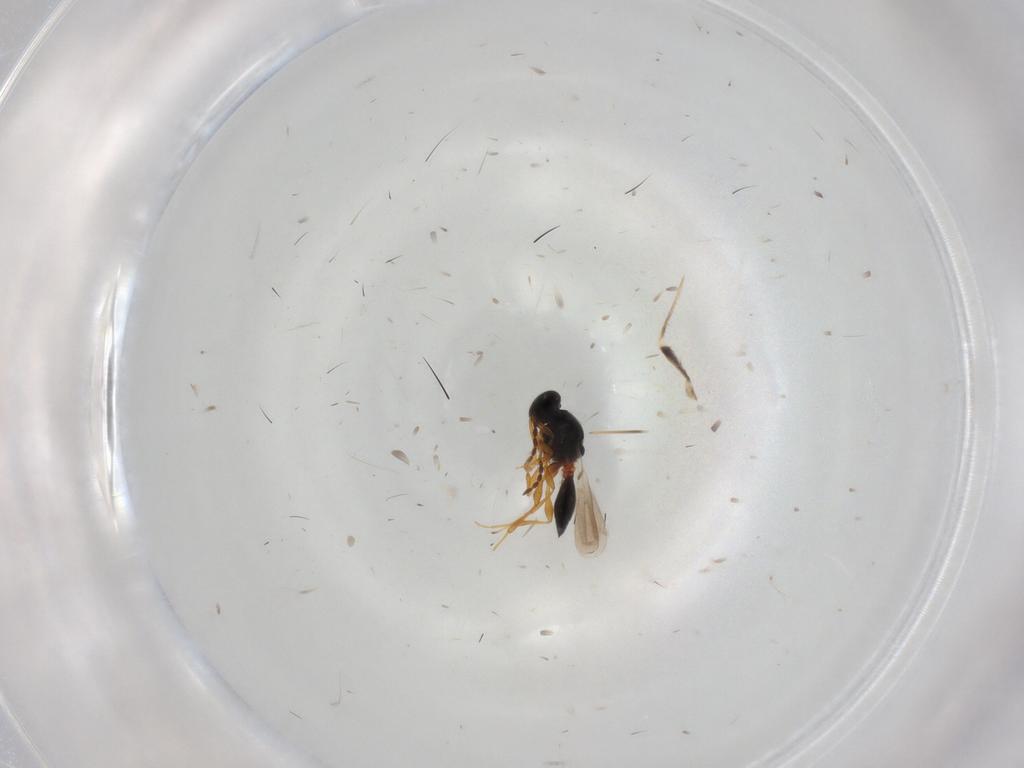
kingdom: Animalia
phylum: Arthropoda
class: Insecta
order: Hymenoptera
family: Platygastridae
